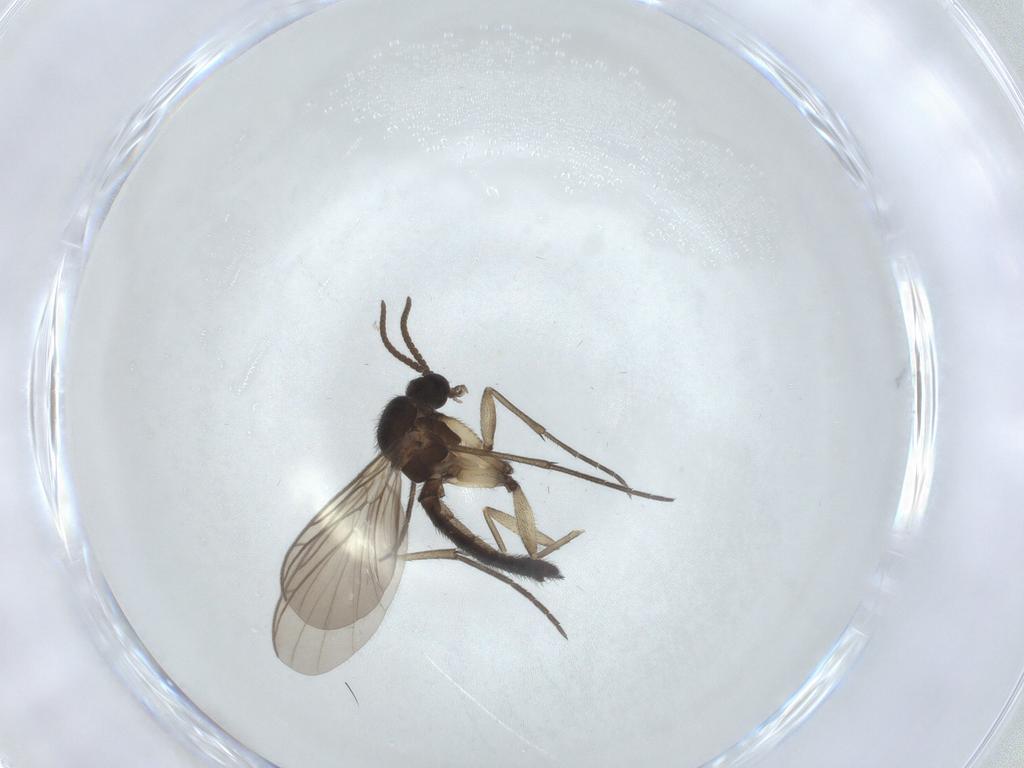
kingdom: Animalia
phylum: Arthropoda
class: Insecta
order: Diptera
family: Keroplatidae
